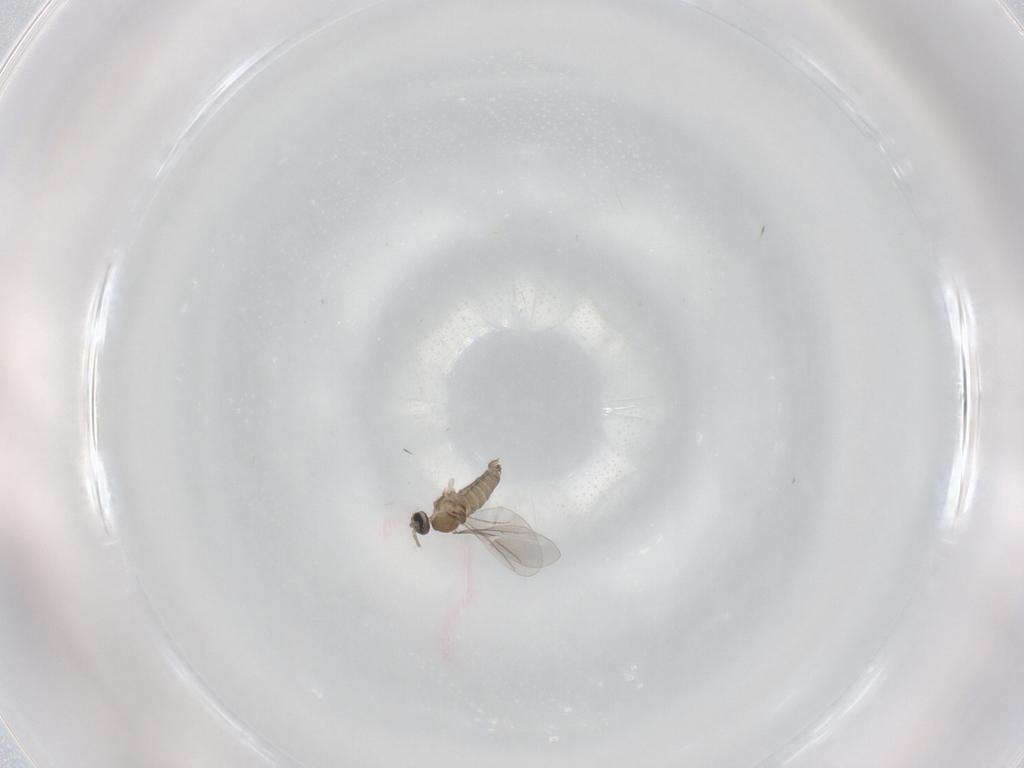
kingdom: Animalia
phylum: Arthropoda
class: Insecta
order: Diptera
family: Cecidomyiidae
